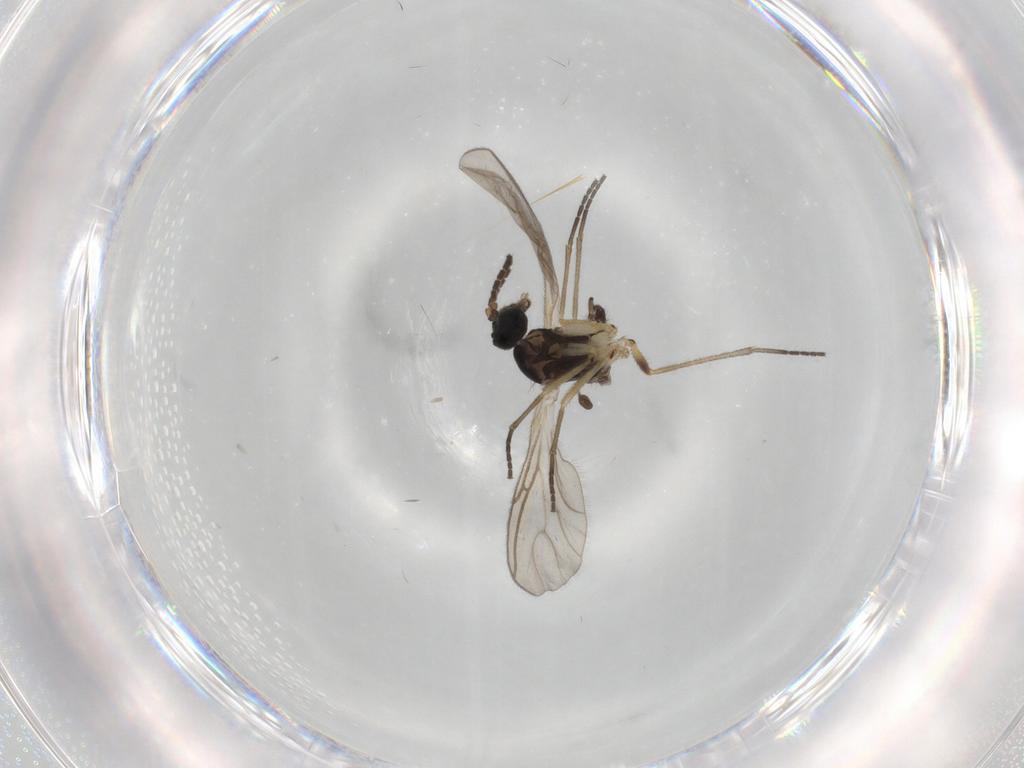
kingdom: Animalia
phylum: Arthropoda
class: Insecta
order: Diptera
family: Sciaridae
